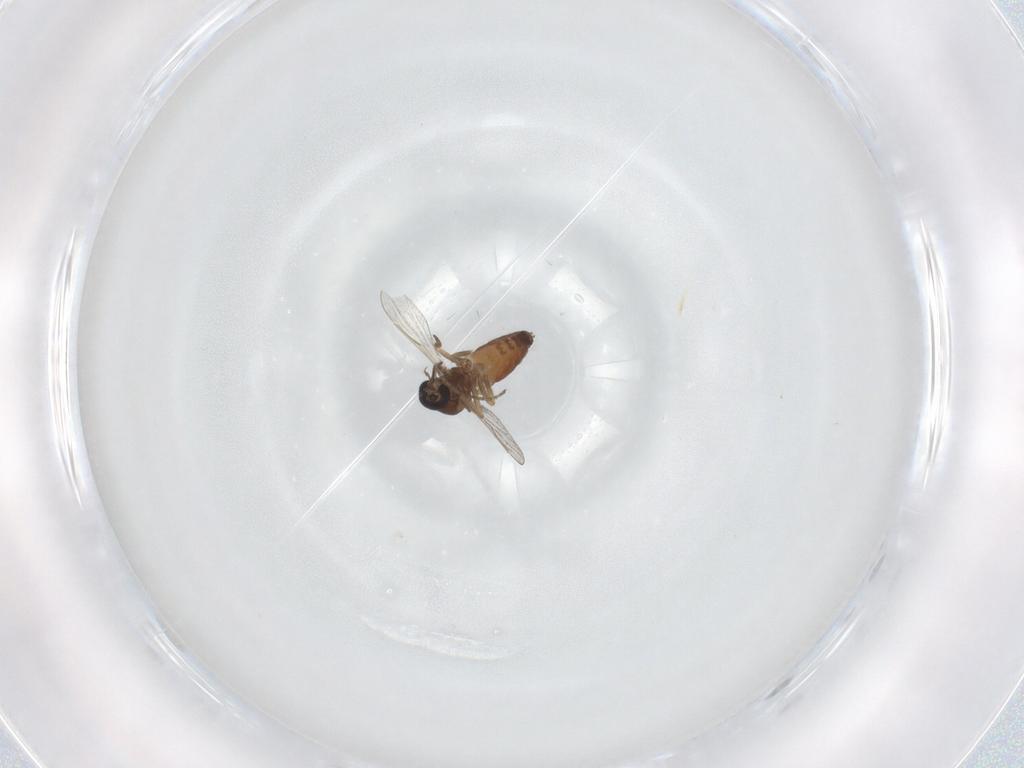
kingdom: Animalia
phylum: Arthropoda
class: Insecta
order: Diptera
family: Ceratopogonidae
